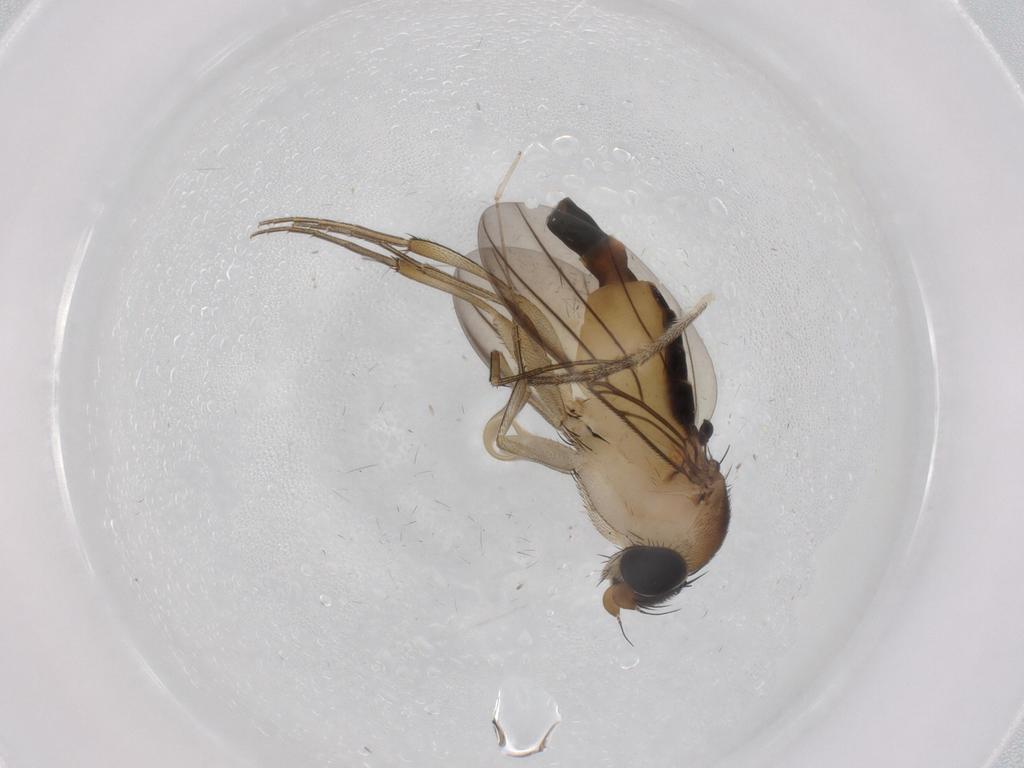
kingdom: Animalia
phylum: Arthropoda
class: Insecta
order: Diptera
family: Phoridae
